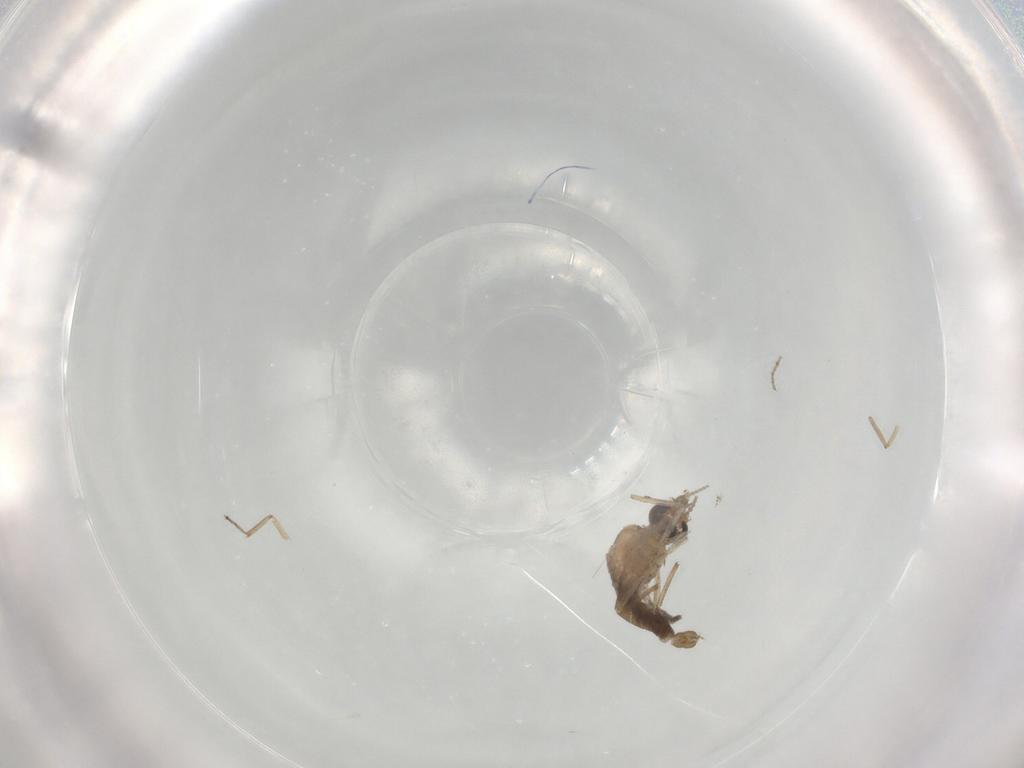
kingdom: Animalia
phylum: Arthropoda
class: Insecta
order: Diptera
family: Ceratopogonidae
